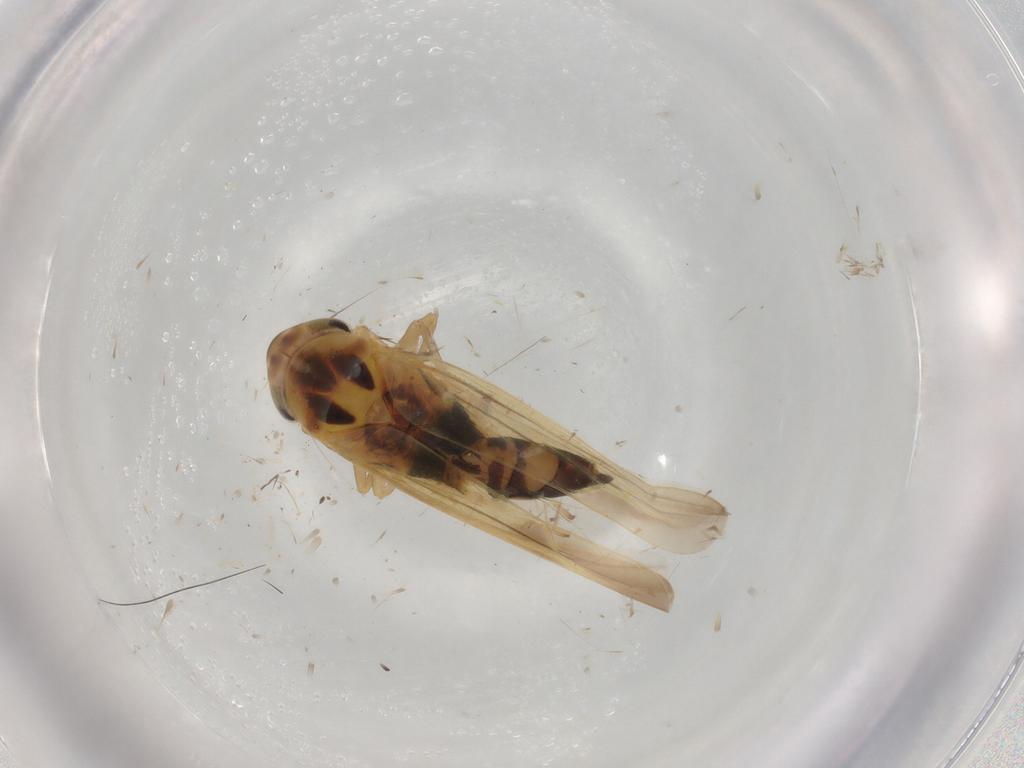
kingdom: Animalia
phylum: Arthropoda
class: Insecta
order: Hemiptera
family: Cicadellidae
